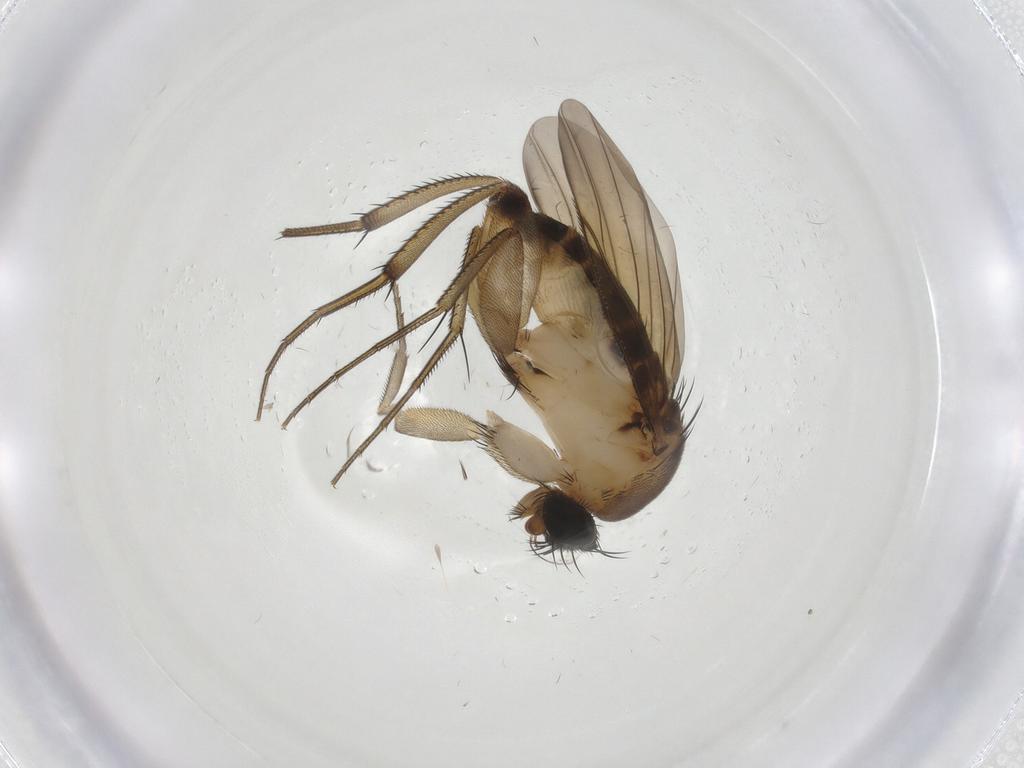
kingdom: Animalia
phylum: Arthropoda
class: Insecta
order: Diptera
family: Phoridae
